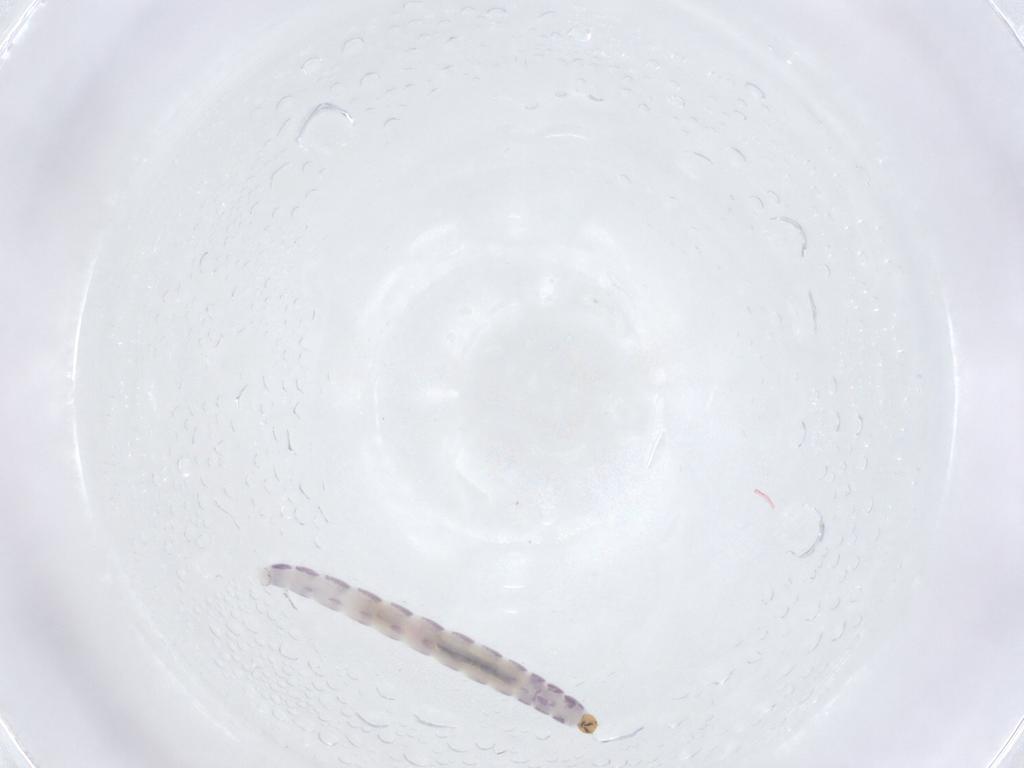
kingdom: Animalia
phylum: Arthropoda
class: Insecta
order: Diptera
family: Chironomidae
